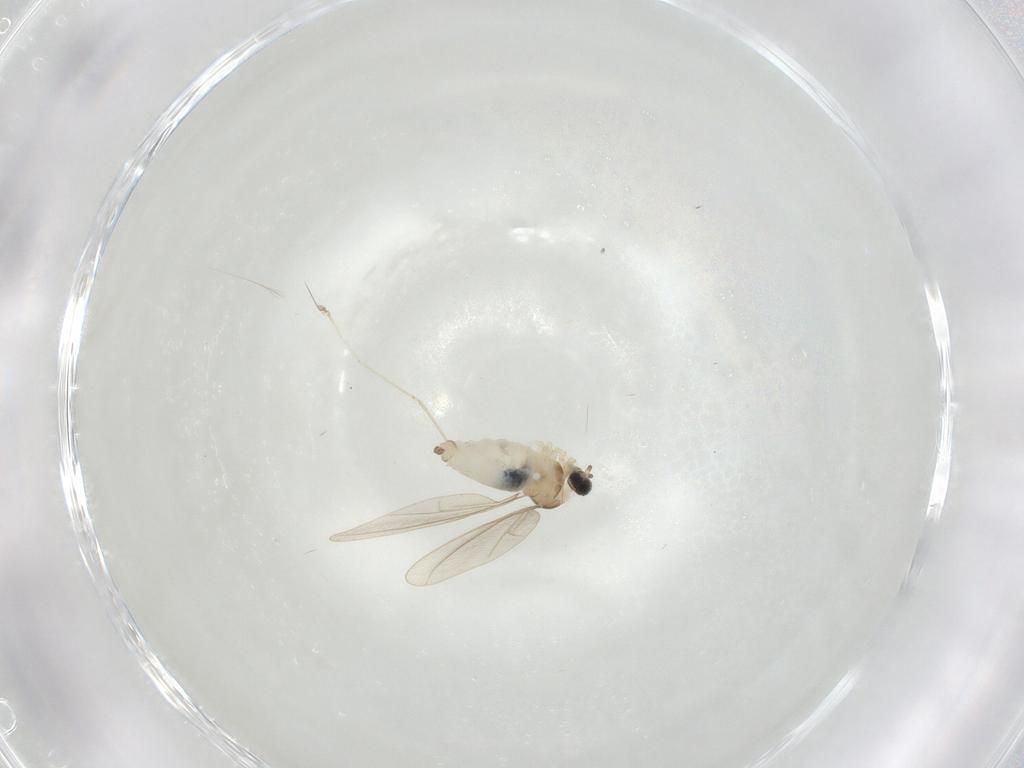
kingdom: Animalia
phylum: Arthropoda
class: Insecta
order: Diptera
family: Cecidomyiidae
